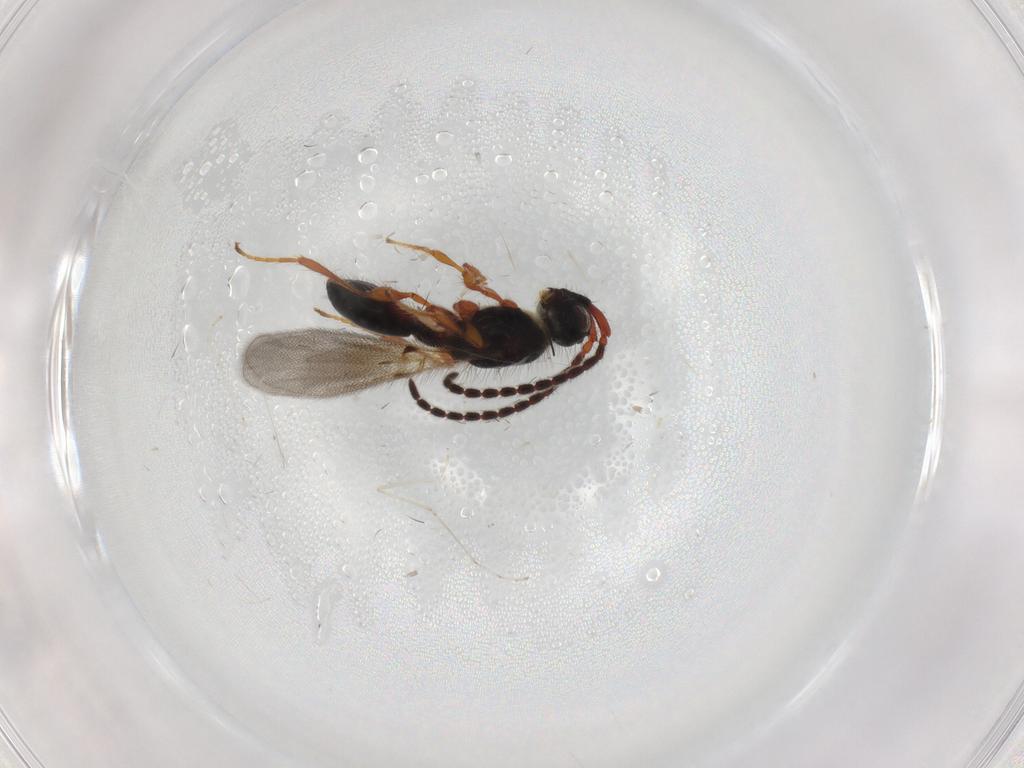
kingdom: Animalia
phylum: Arthropoda
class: Insecta
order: Hymenoptera
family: Diapriidae
